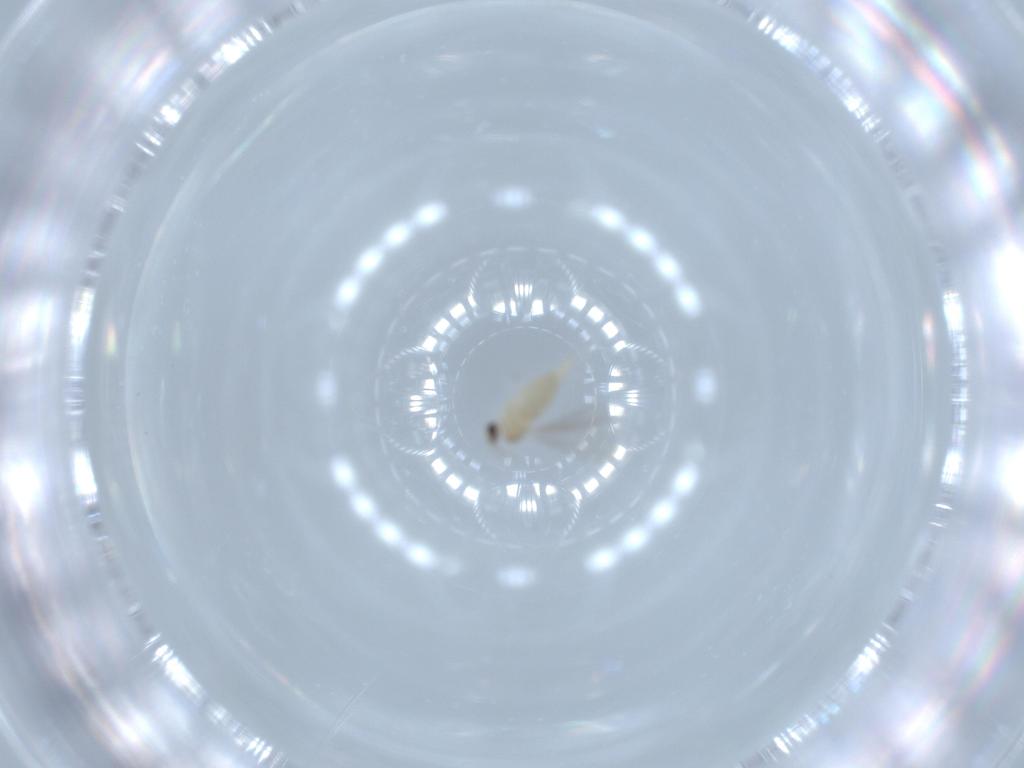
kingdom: Animalia
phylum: Arthropoda
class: Insecta
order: Diptera
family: Cecidomyiidae
